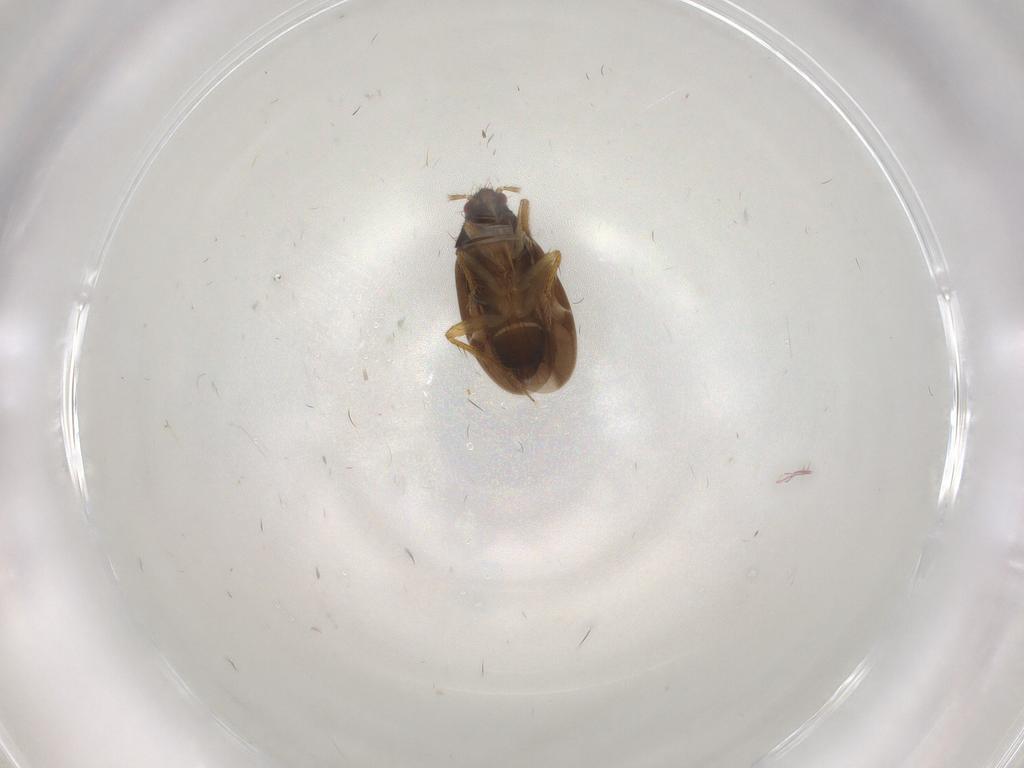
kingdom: Animalia
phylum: Arthropoda
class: Insecta
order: Hemiptera
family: Ceratocombidae
